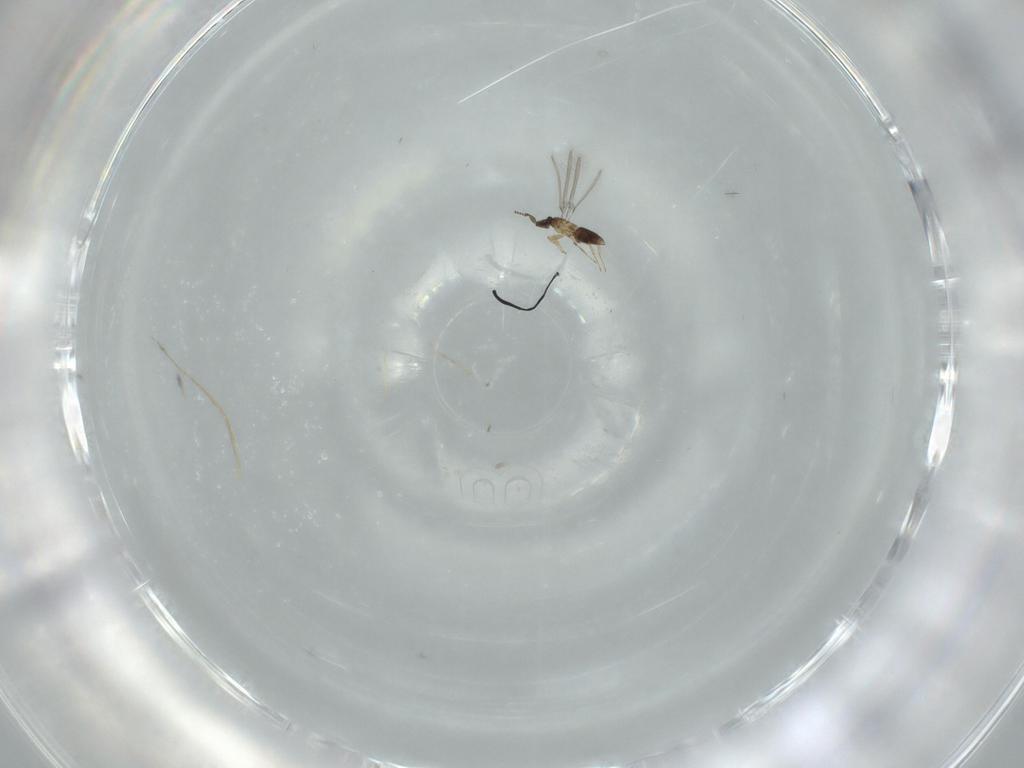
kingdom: Animalia
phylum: Arthropoda
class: Insecta
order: Hymenoptera
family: Mymaridae
